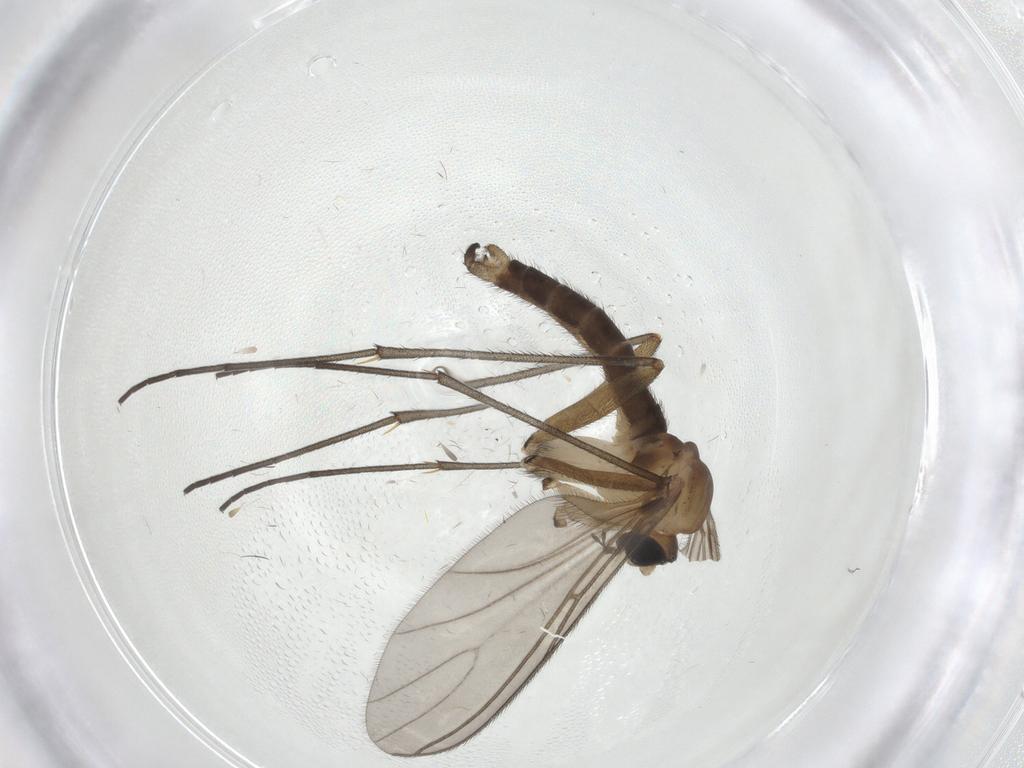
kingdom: Animalia
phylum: Arthropoda
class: Insecta
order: Diptera
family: Sciaridae
